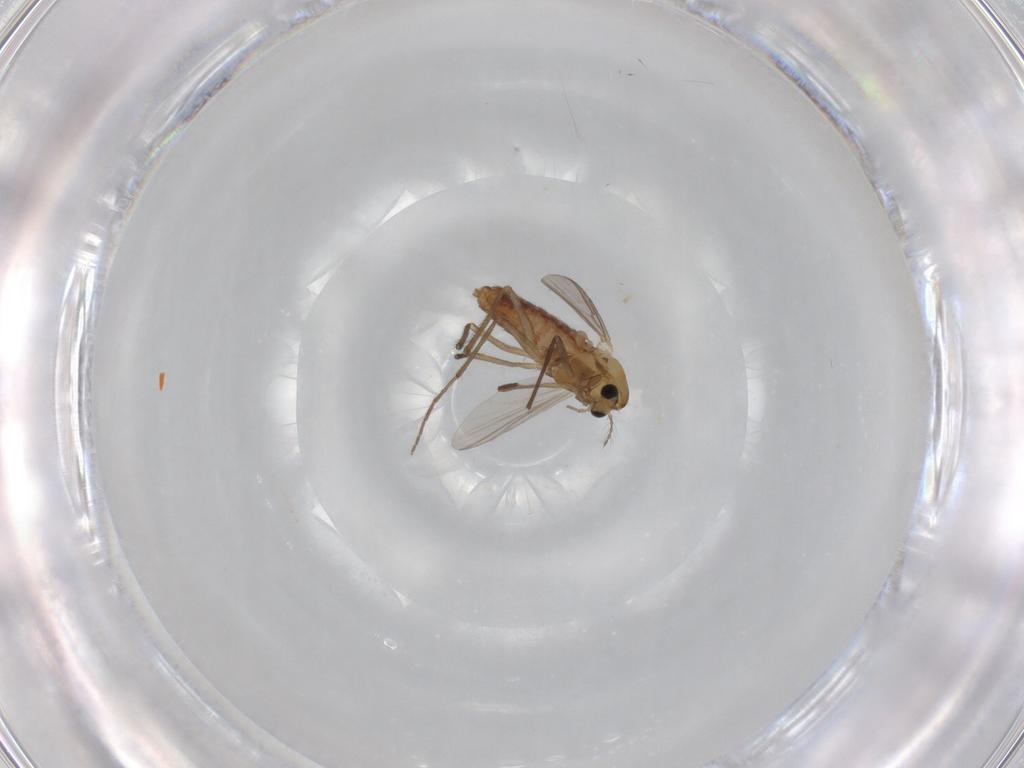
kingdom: Animalia
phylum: Arthropoda
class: Insecta
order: Diptera
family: Chironomidae
